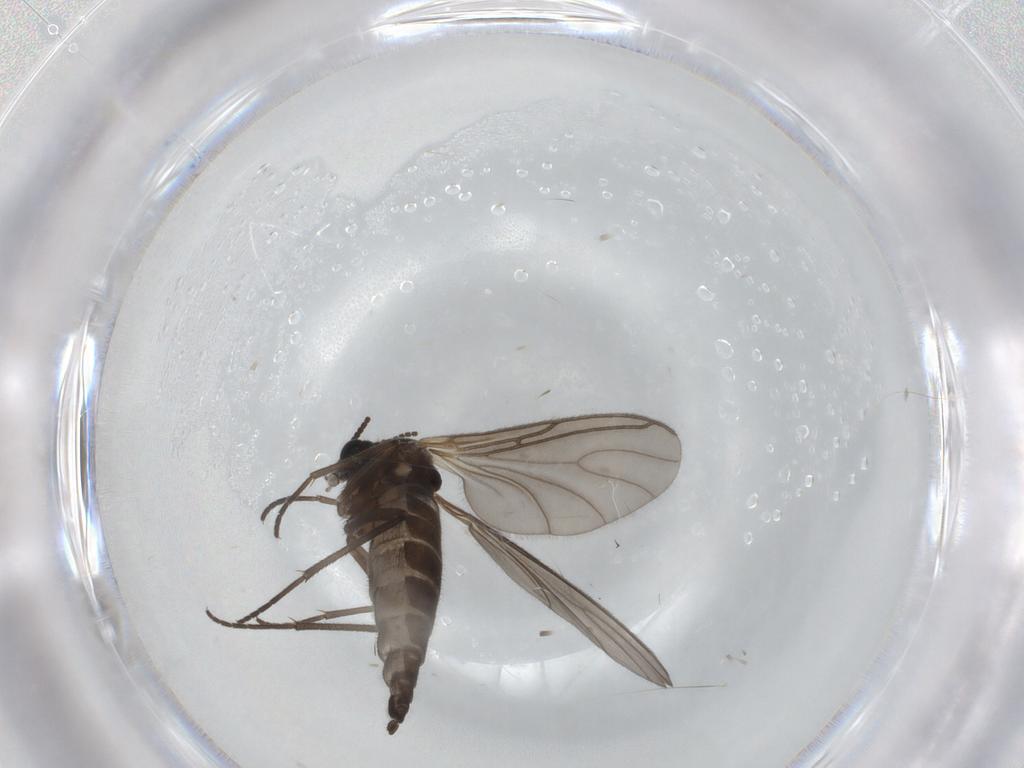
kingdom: Animalia
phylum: Arthropoda
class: Insecta
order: Diptera
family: Sciaridae
